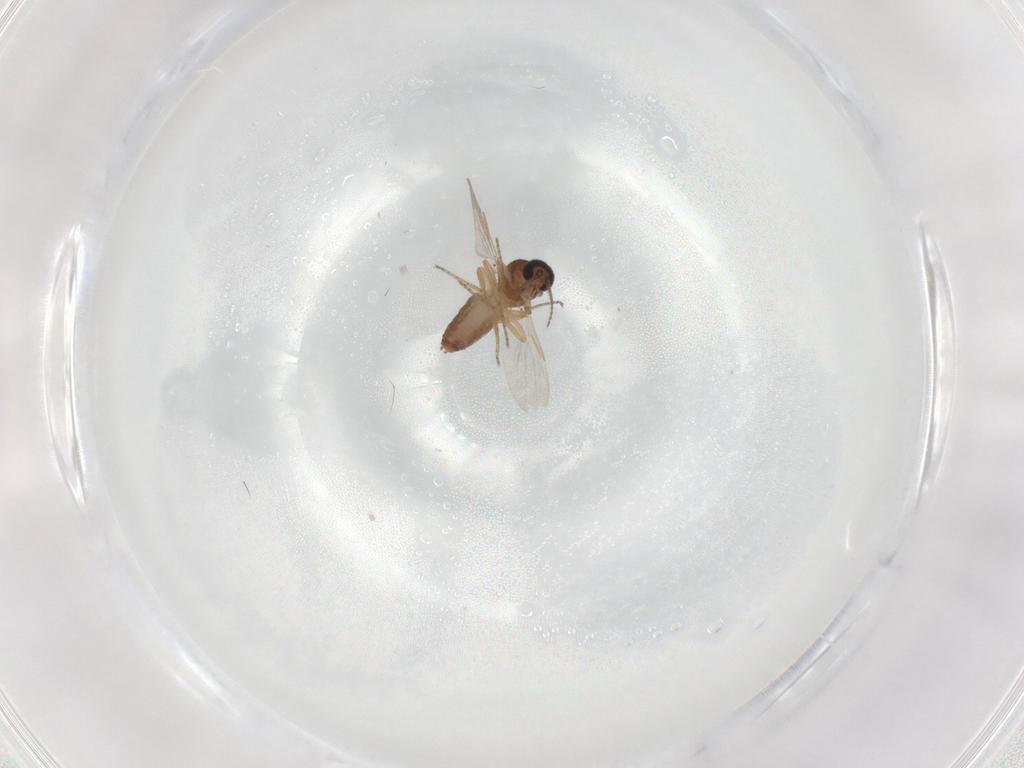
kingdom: Animalia
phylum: Arthropoda
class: Insecta
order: Diptera
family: Ceratopogonidae
